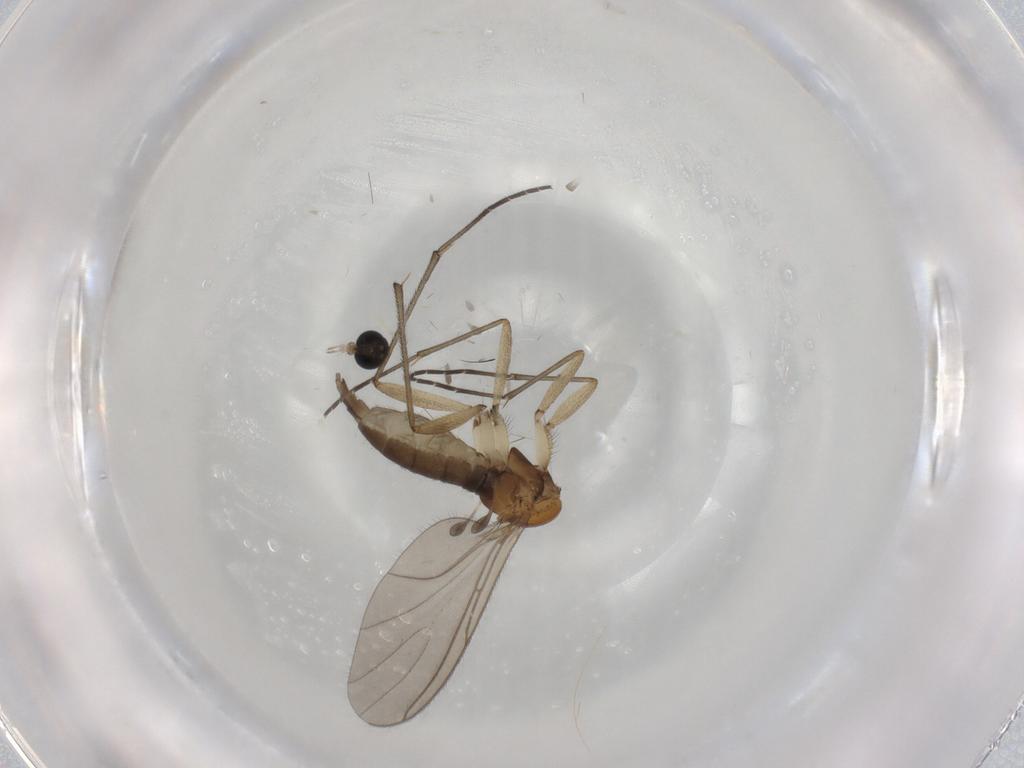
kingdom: Animalia
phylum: Arthropoda
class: Insecta
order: Diptera
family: Sciaridae
